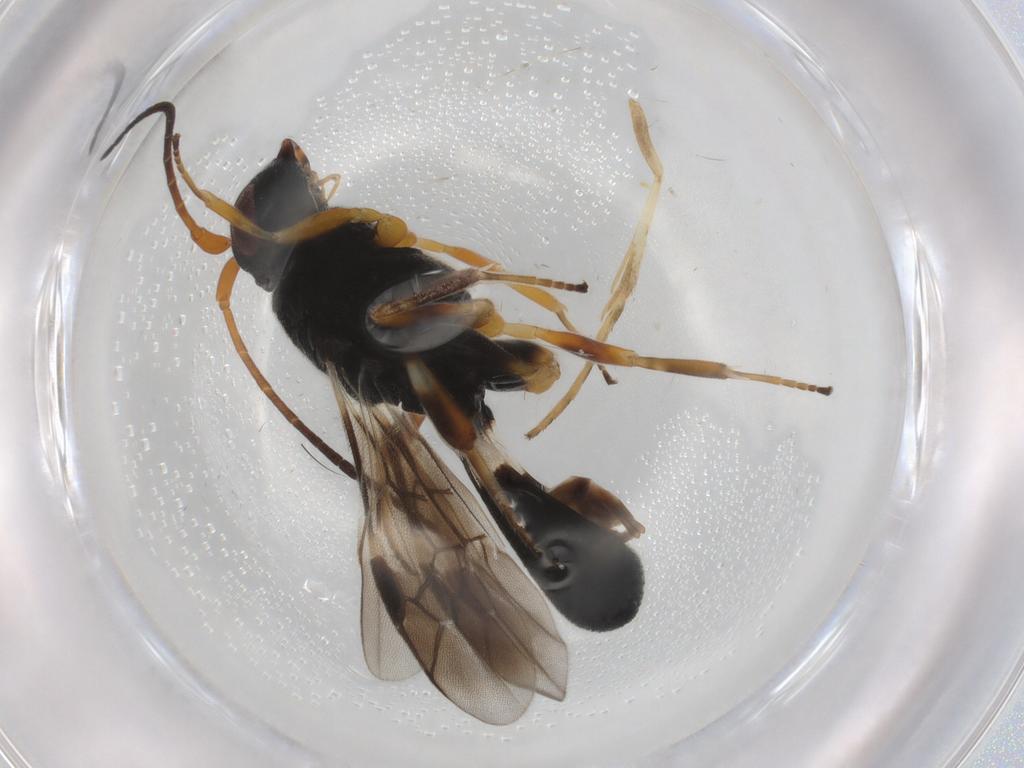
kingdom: Animalia
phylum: Arthropoda
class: Insecta
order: Hymenoptera
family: Braconidae
